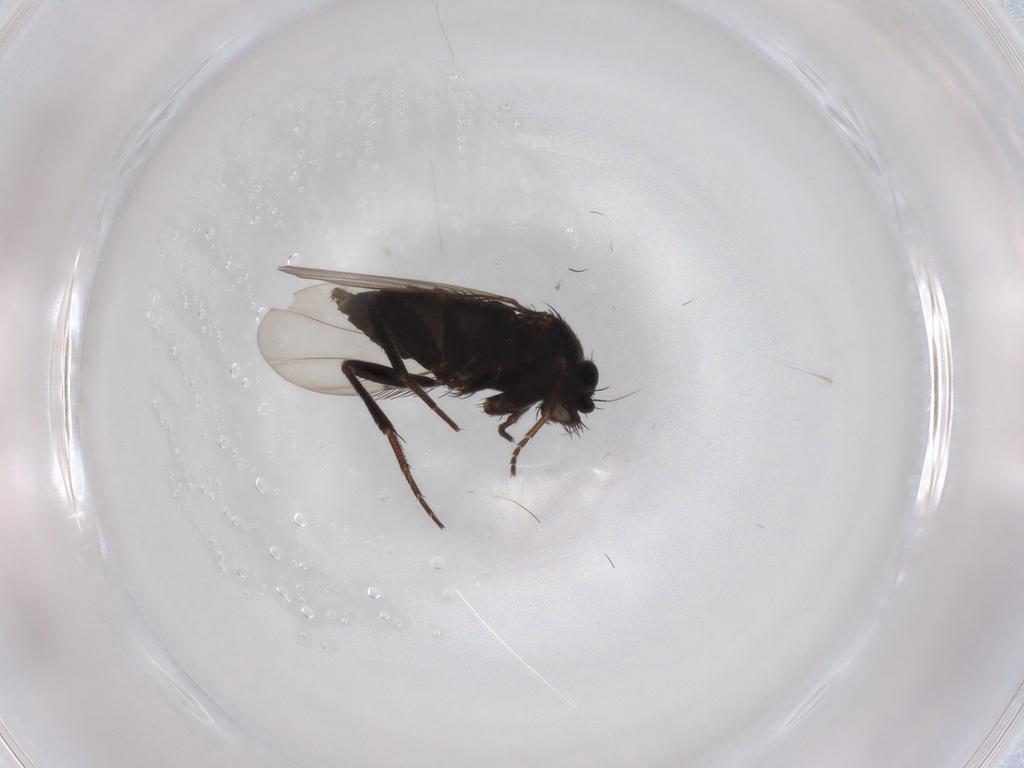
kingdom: Animalia
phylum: Arthropoda
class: Insecta
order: Diptera
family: Phoridae
